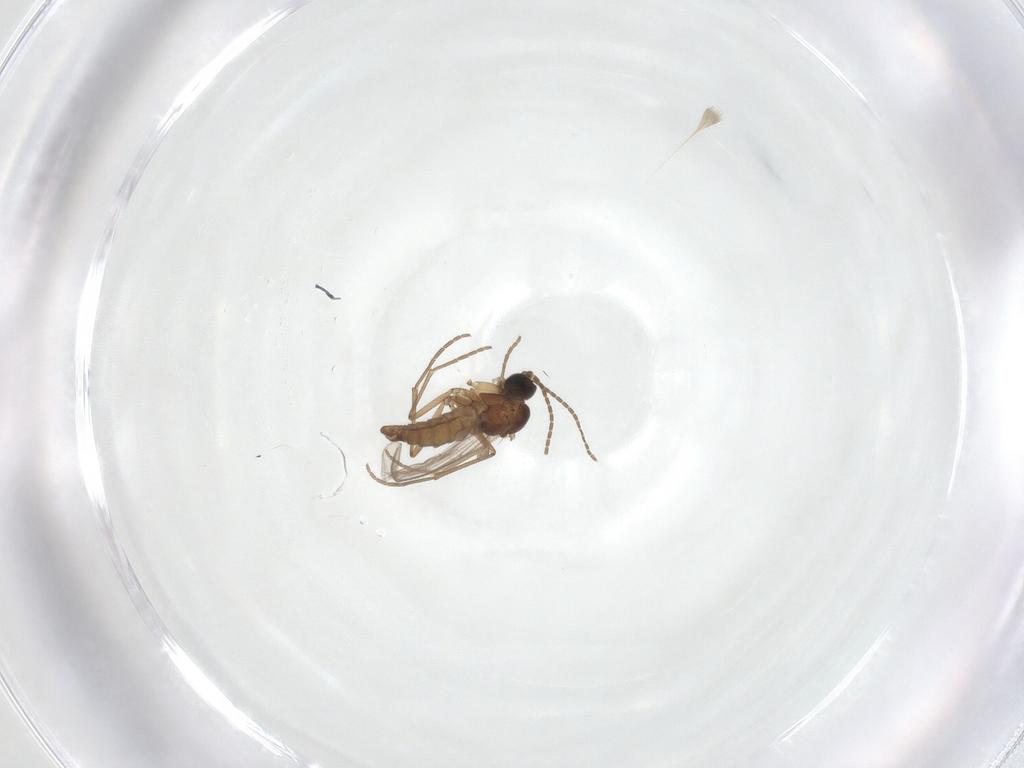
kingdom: Animalia
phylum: Arthropoda
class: Insecta
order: Diptera
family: Sciaridae
